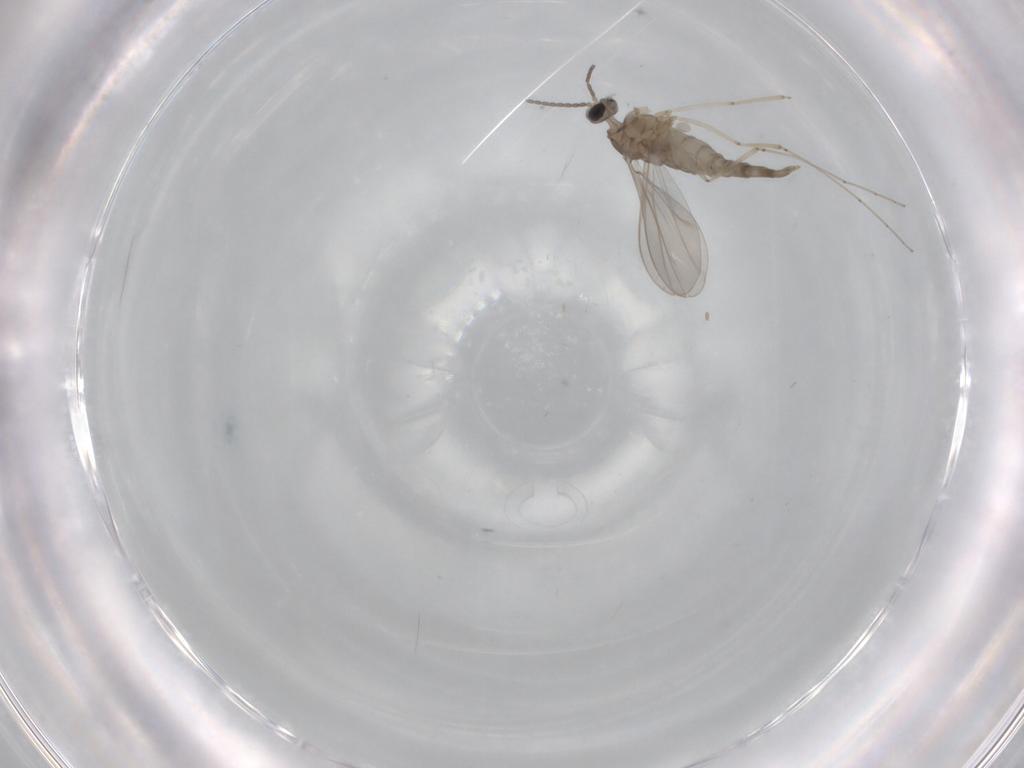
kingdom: Animalia
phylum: Arthropoda
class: Insecta
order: Diptera
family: Cecidomyiidae
